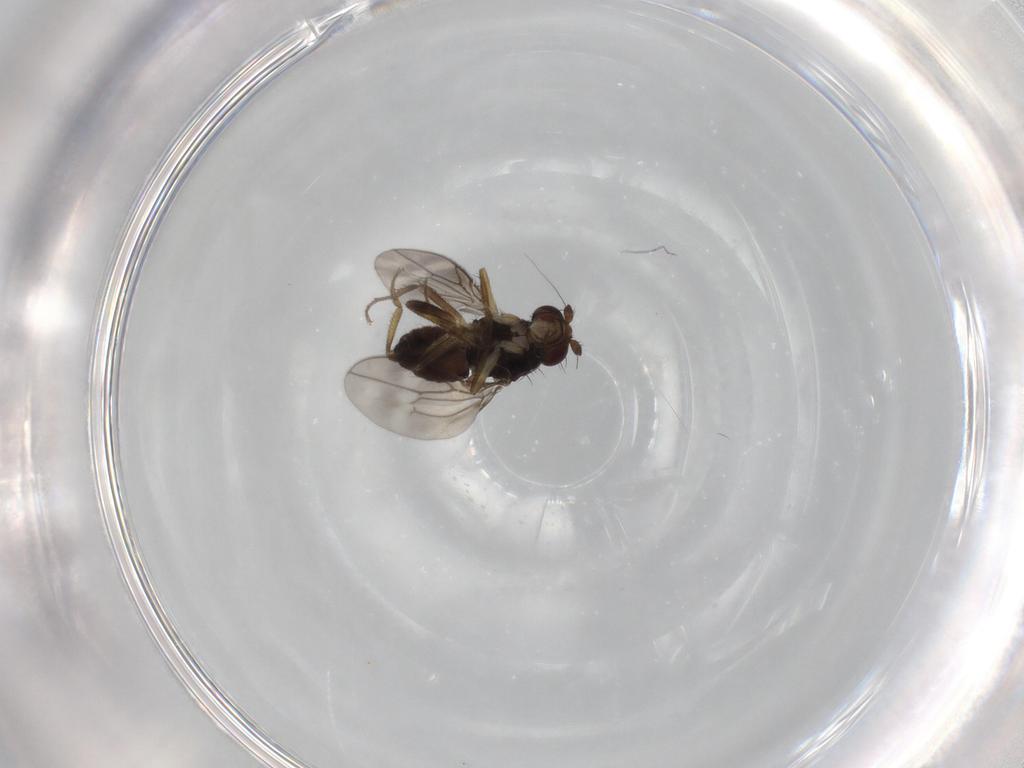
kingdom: Animalia
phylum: Arthropoda
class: Insecta
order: Diptera
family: Sphaeroceridae
